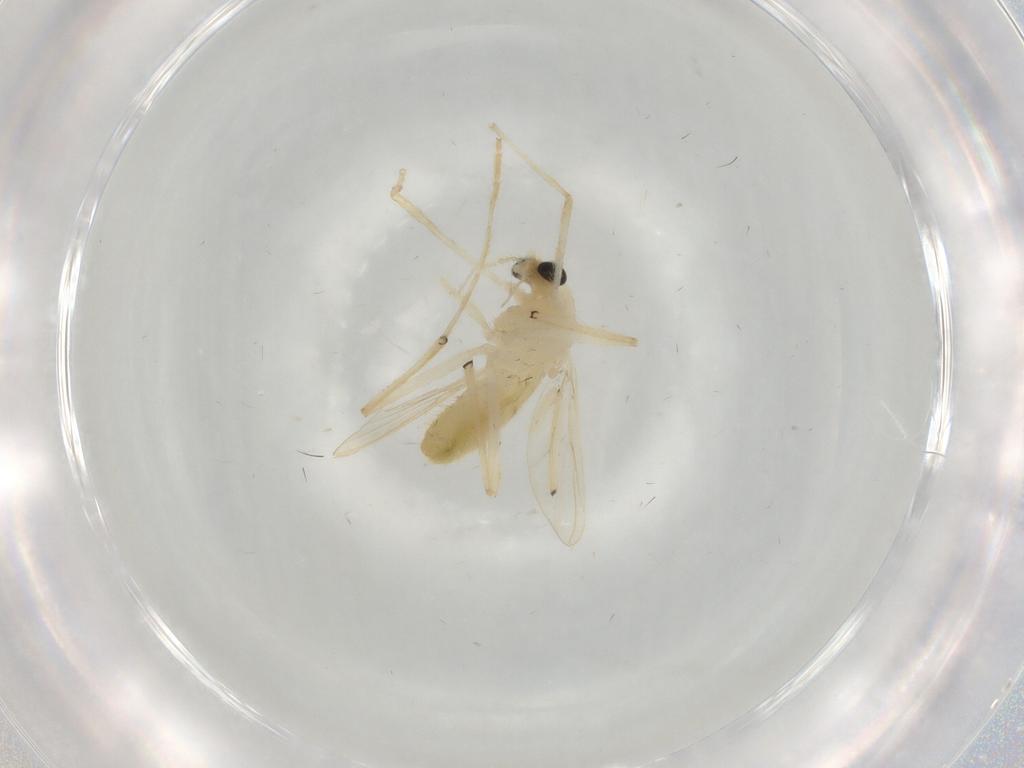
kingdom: Animalia
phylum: Arthropoda
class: Insecta
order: Diptera
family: Chironomidae
